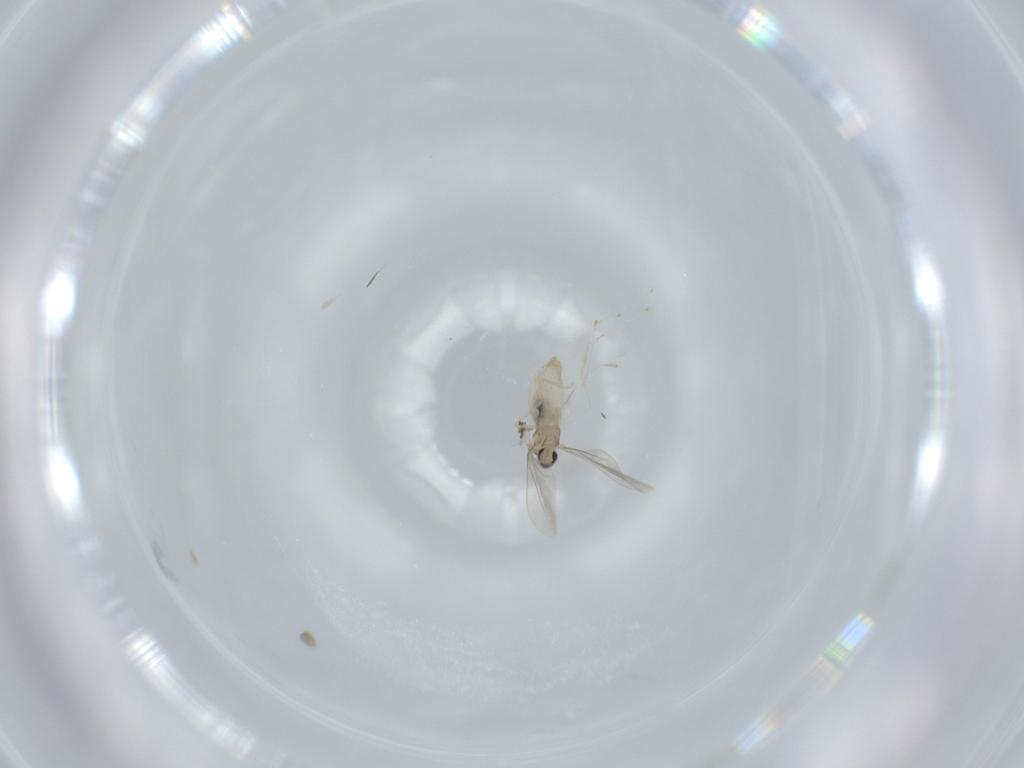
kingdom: Animalia
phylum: Arthropoda
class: Insecta
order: Diptera
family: Cecidomyiidae
